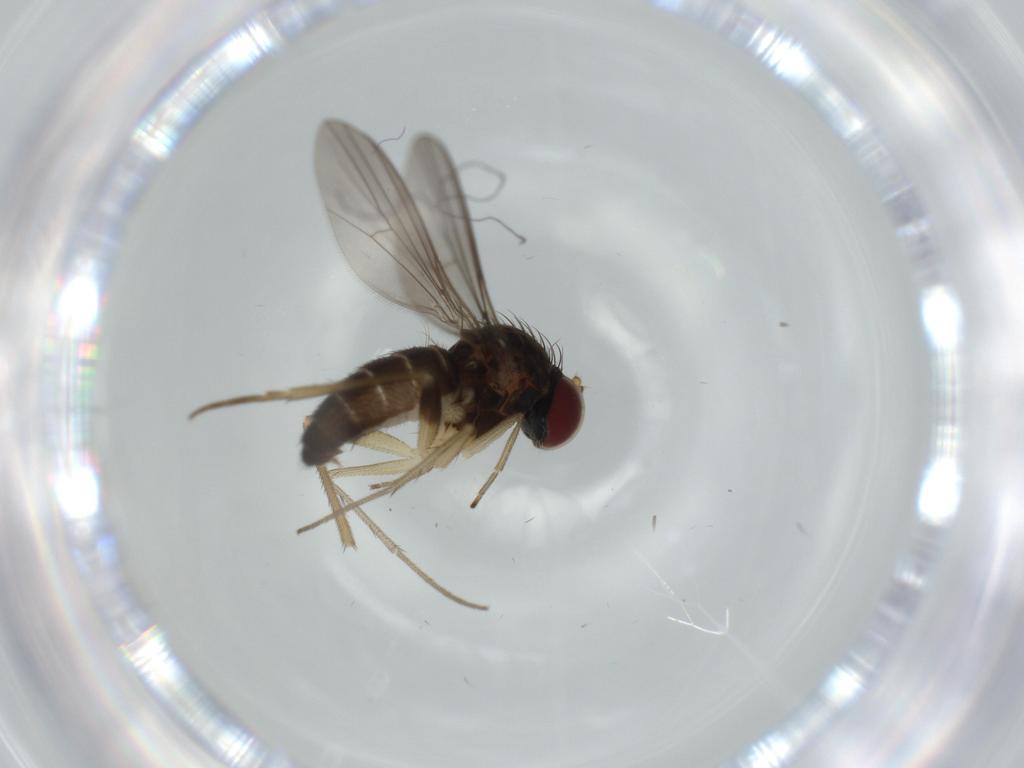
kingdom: Animalia
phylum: Arthropoda
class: Insecta
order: Diptera
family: Dolichopodidae
